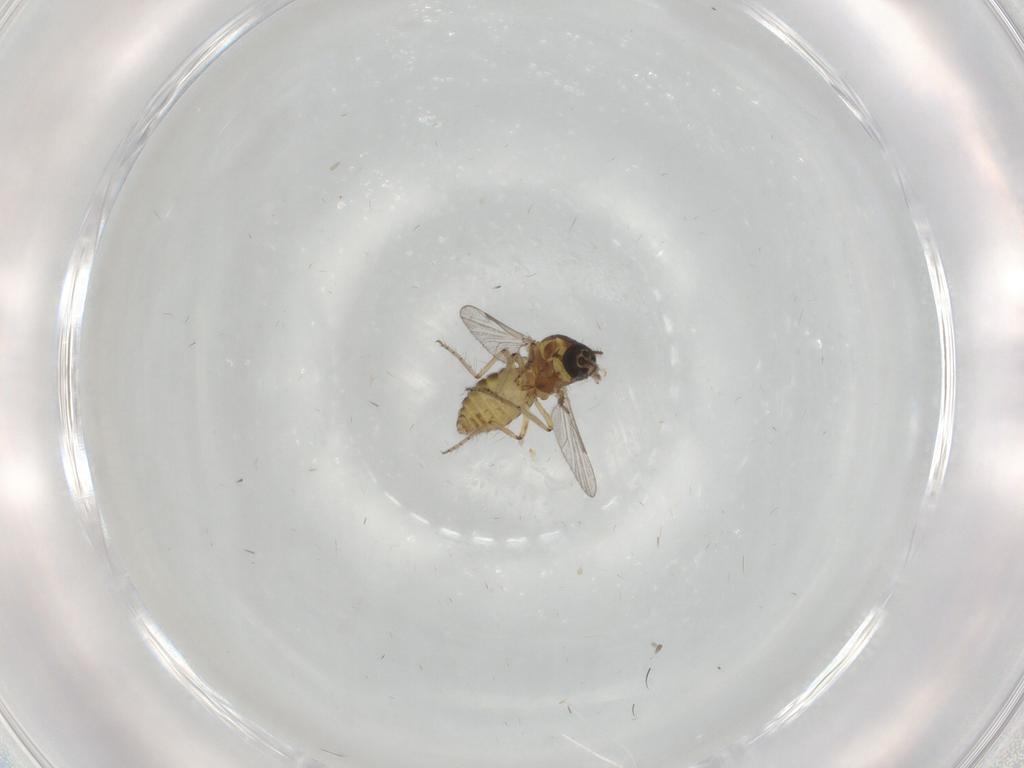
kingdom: Animalia
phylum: Arthropoda
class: Insecta
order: Diptera
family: Ceratopogonidae
